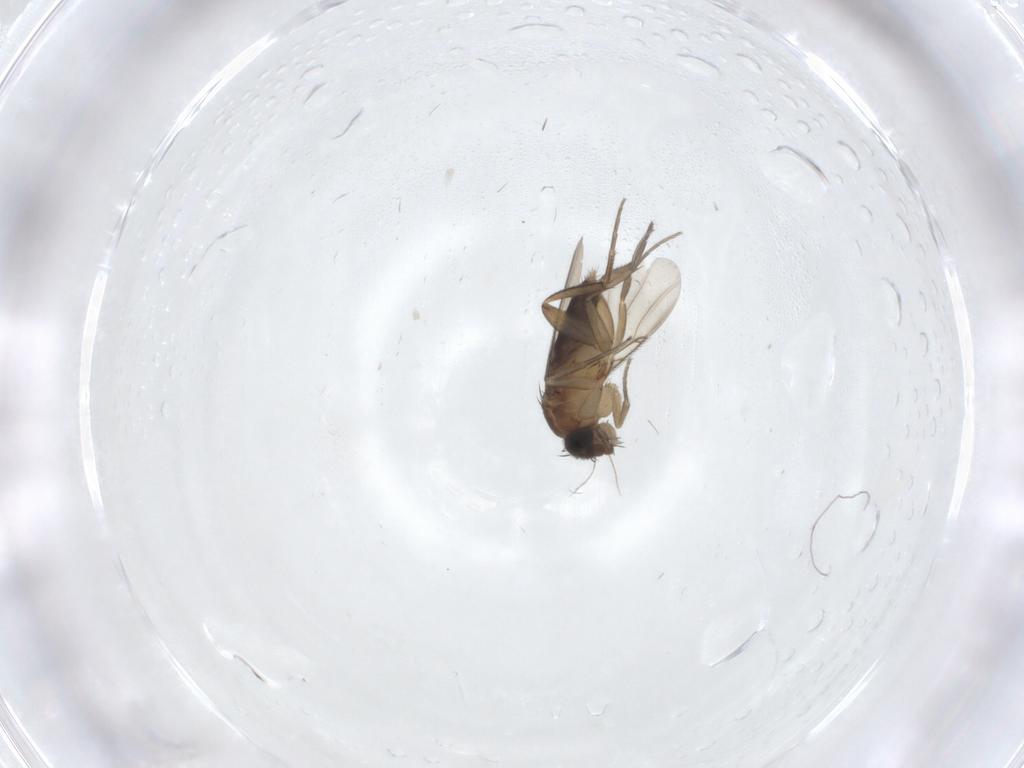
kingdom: Animalia
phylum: Arthropoda
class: Insecta
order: Diptera
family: Phoridae
